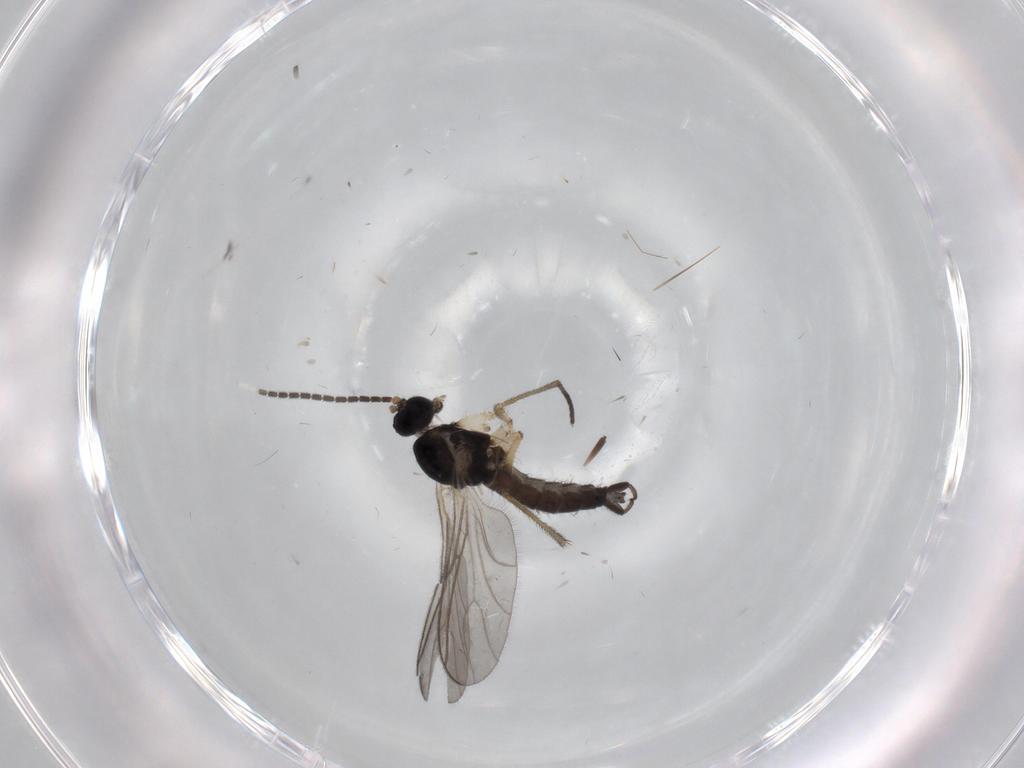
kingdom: Animalia
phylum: Arthropoda
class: Insecta
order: Diptera
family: Sciaridae
